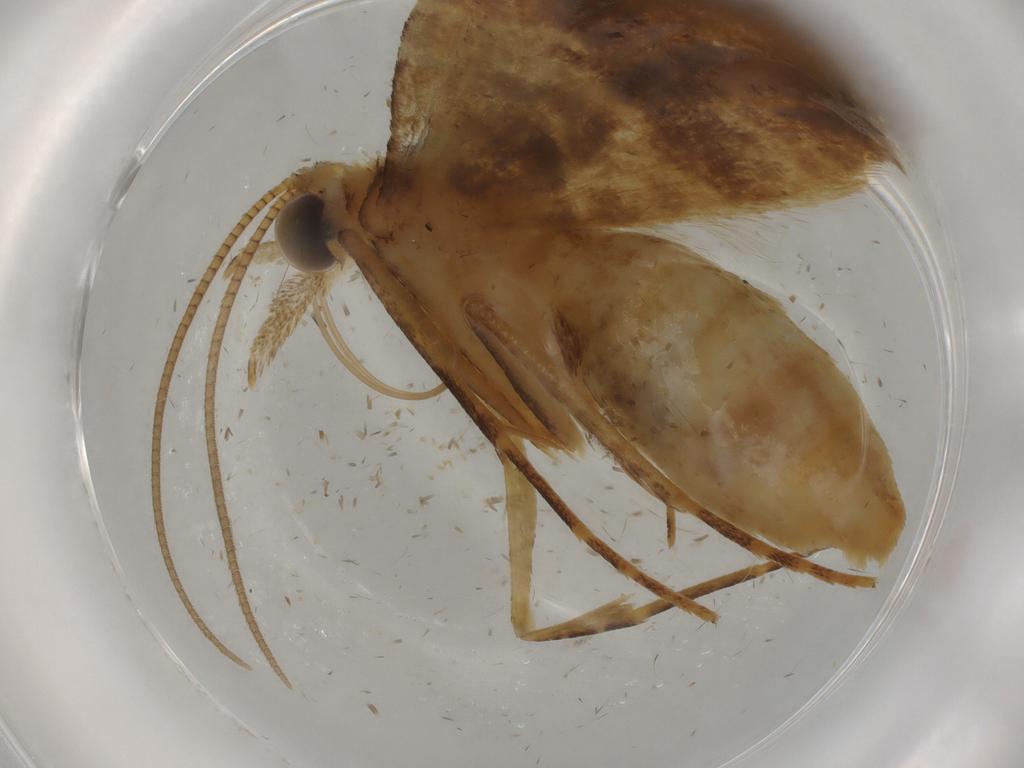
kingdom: Animalia
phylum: Arthropoda
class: Insecta
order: Lepidoptera
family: Schreckensteiniidae
